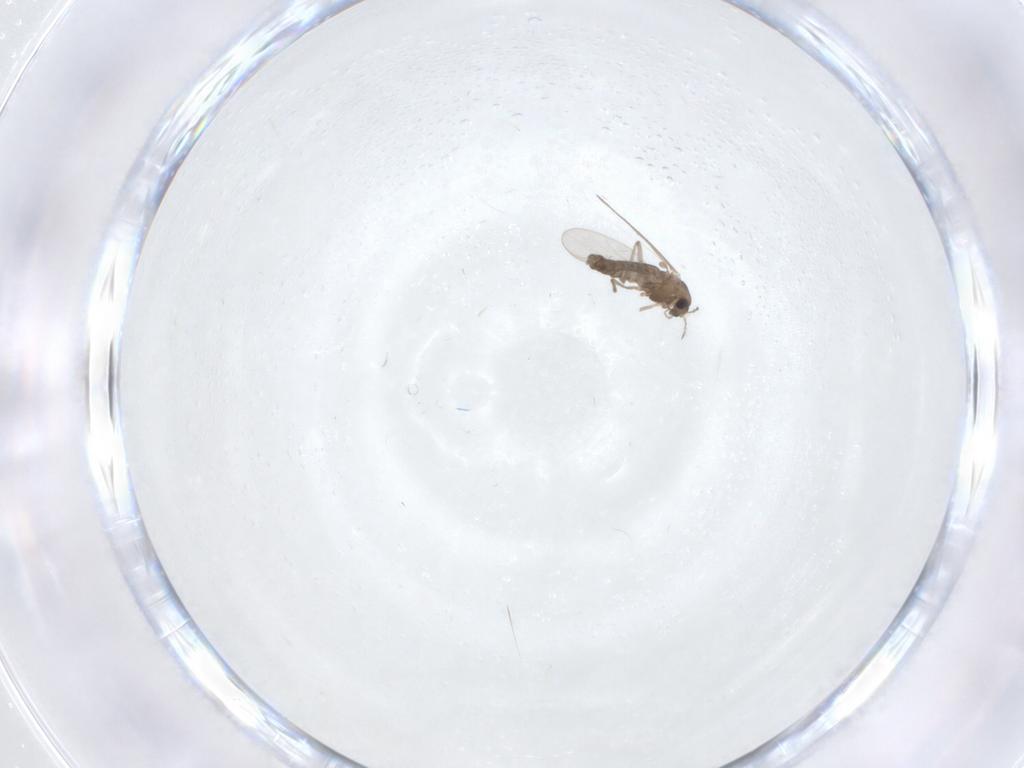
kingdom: Animalia
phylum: Arthropoda
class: Insecta
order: Diptera
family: Chironomidae
